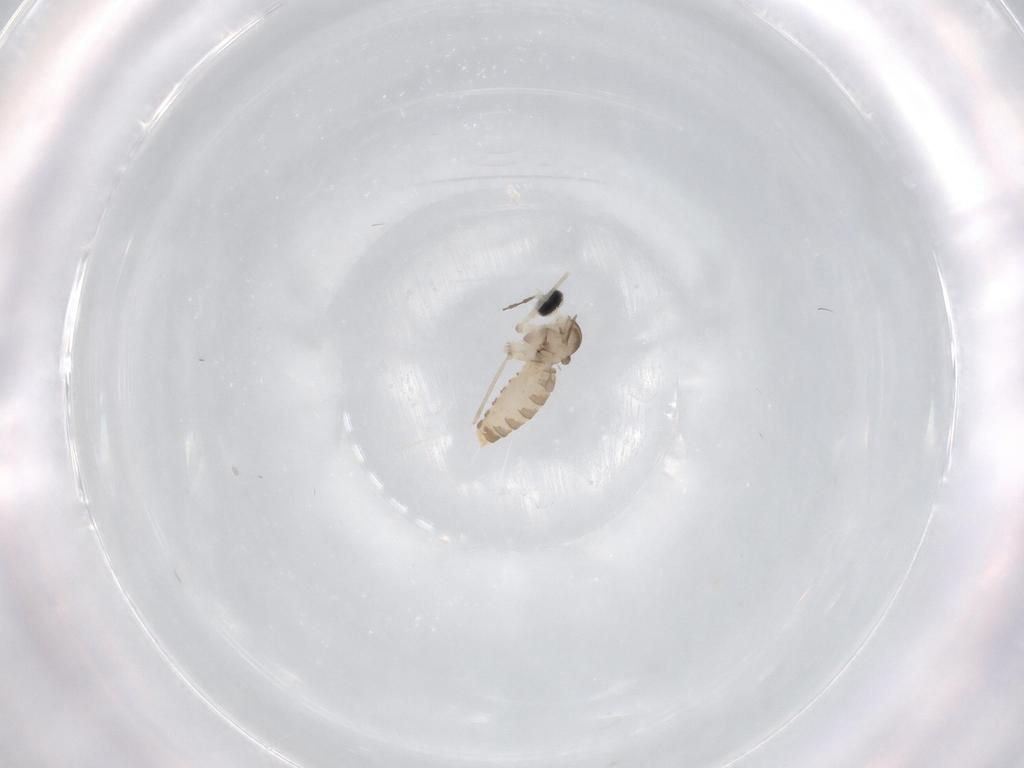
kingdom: Animalia
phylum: Arthropoda
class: Insecta
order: Diptera
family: Cecidomyiidae
